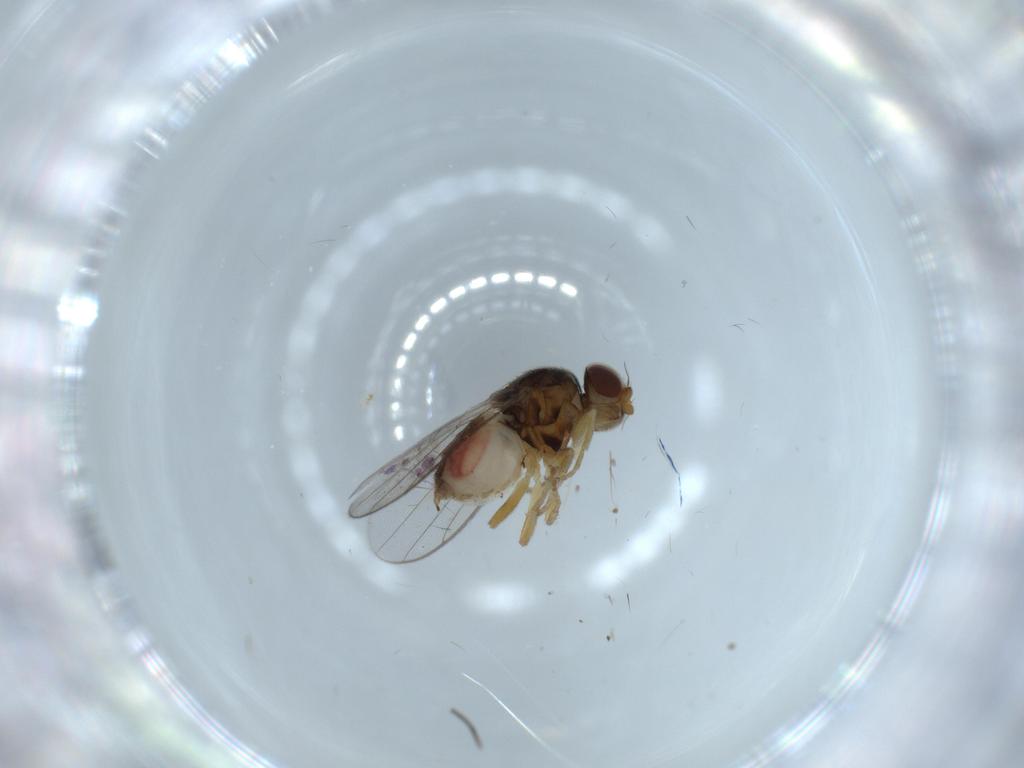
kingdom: Animalia
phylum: Arthropoda
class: Insecta
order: Diptera
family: Chloropidae
